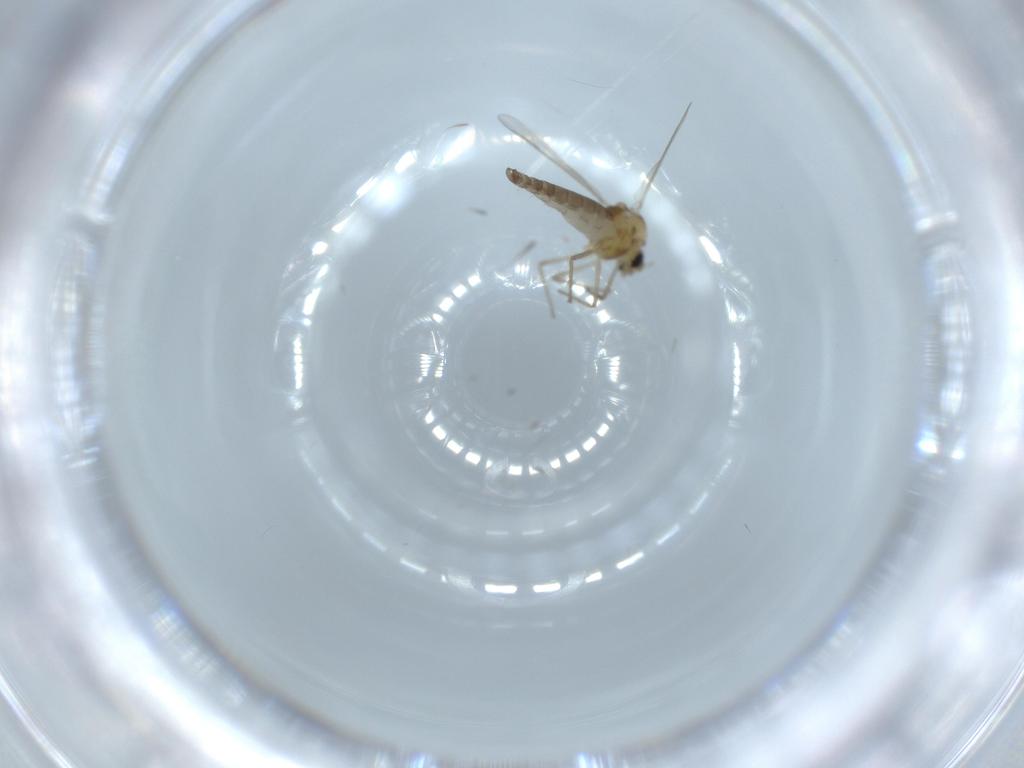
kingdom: Animalia
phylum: Arthropoda
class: Insecta
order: Diptera
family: Chironomidae
